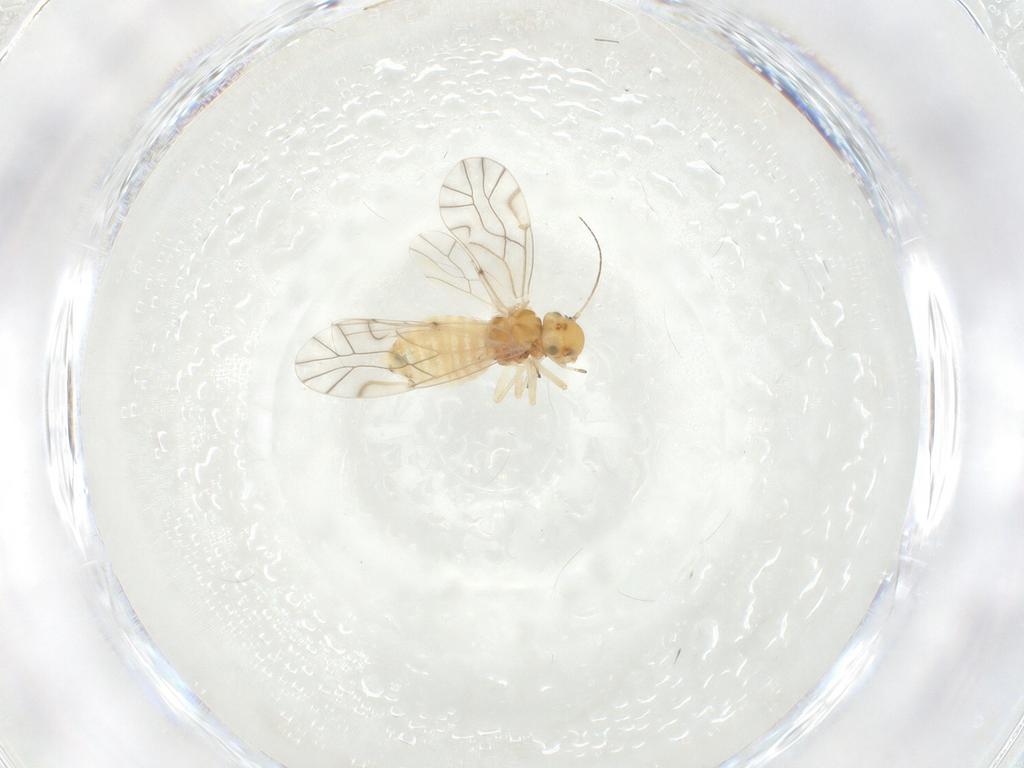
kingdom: Animalia
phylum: Arthropoda
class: Insecta
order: Psocodea
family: Lachesillidae
